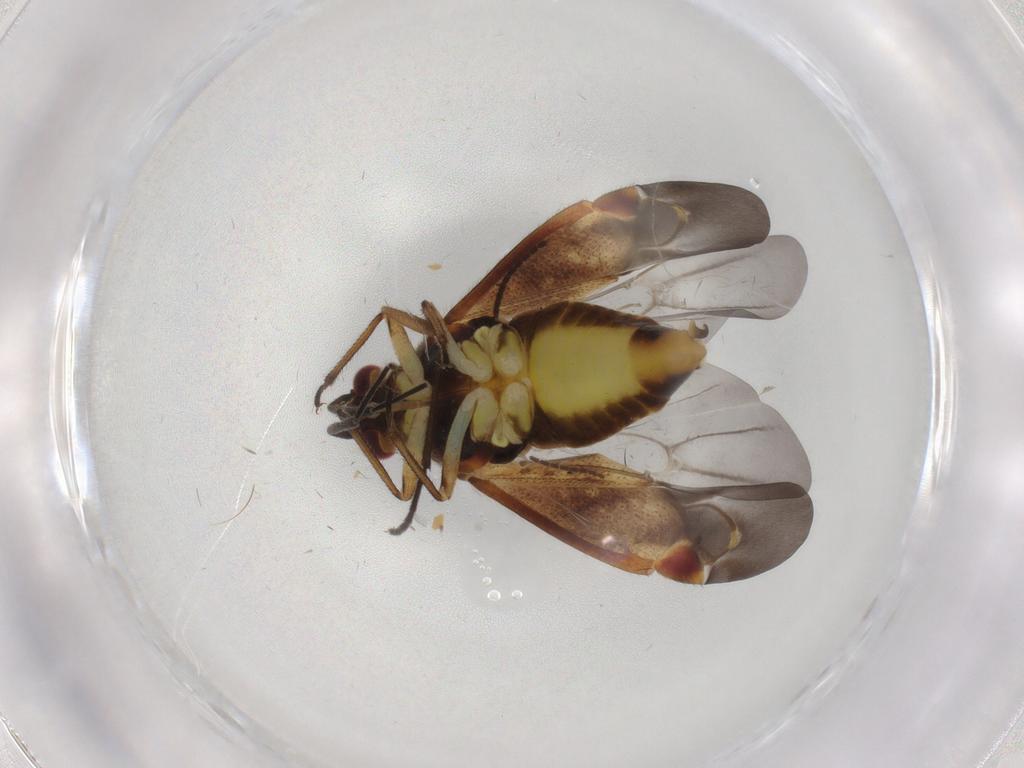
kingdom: Animalia
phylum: Arthropoda
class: Insecta
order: Hemiptera
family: Miridae
